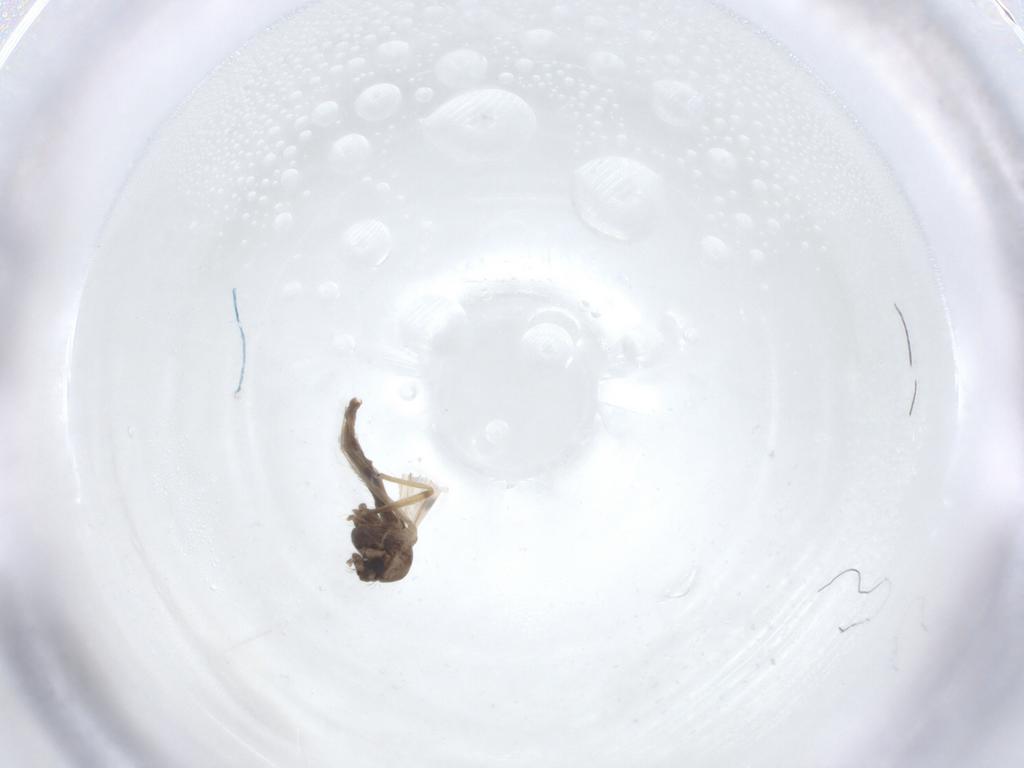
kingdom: Animalia
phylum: Arthropoda
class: Insecta
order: Diptera
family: Chironomidae
